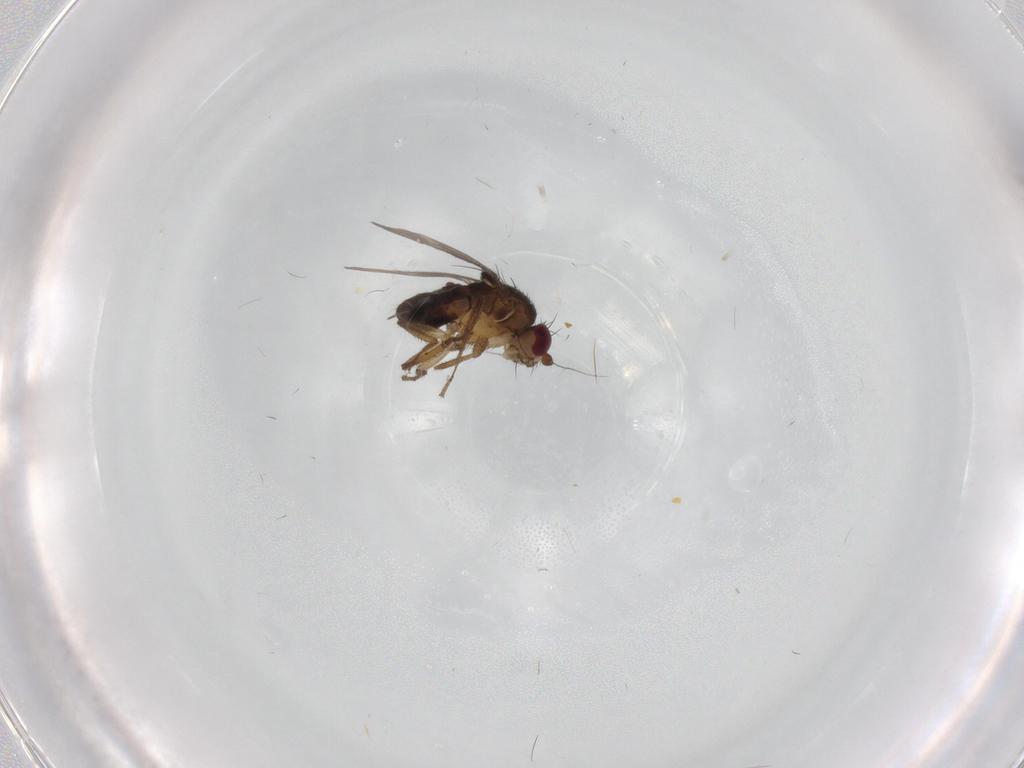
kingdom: Animalia
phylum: Arthropoda
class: Insecta
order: Diptera
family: Sphaeroceridae
